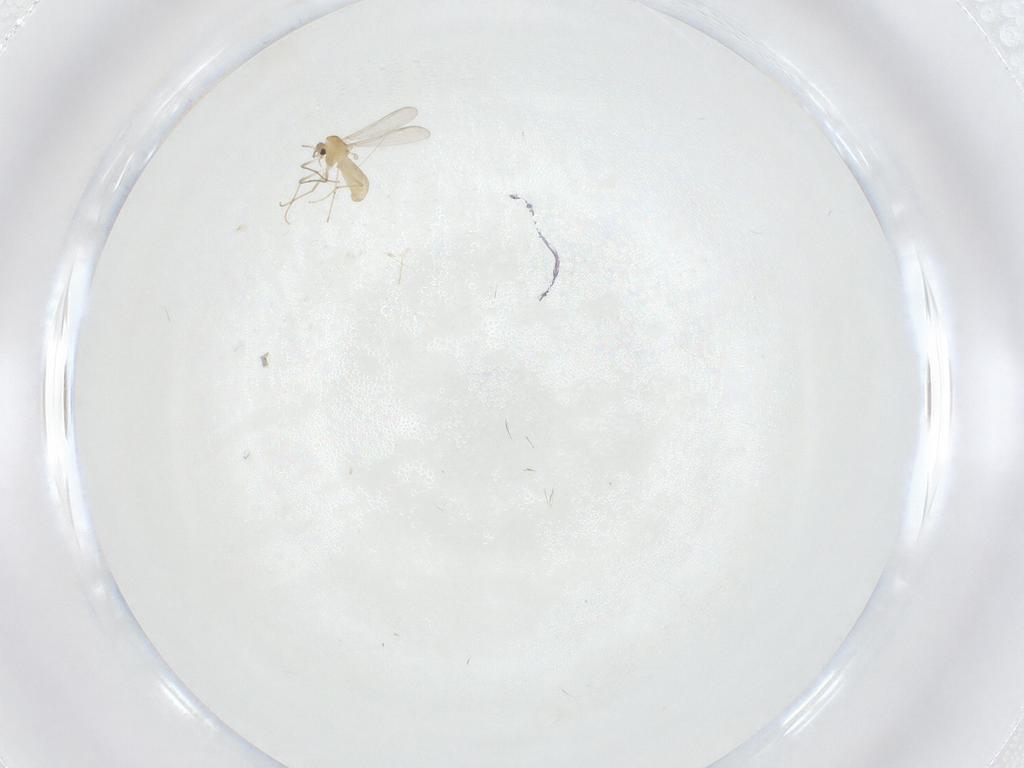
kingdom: Animalia
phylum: Arthropoda
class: Insecta
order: Diptera
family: Chironomidae
